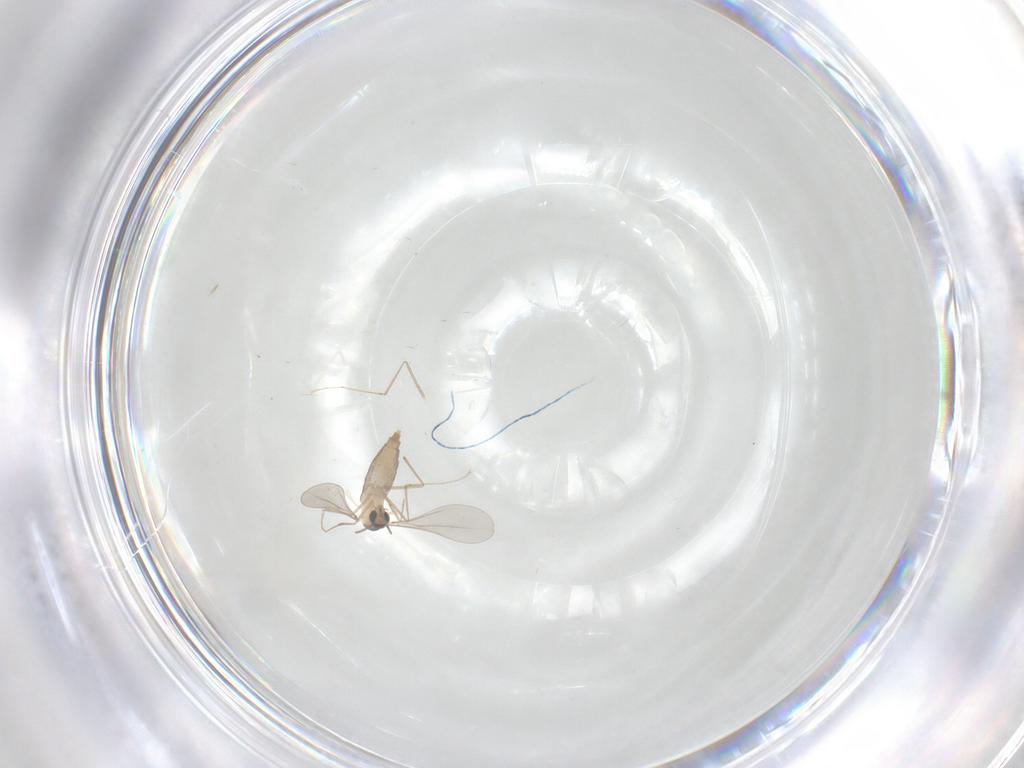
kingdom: Animalia
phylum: Arthropoda
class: Insecta
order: Diptera
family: Cecidomyiidae
